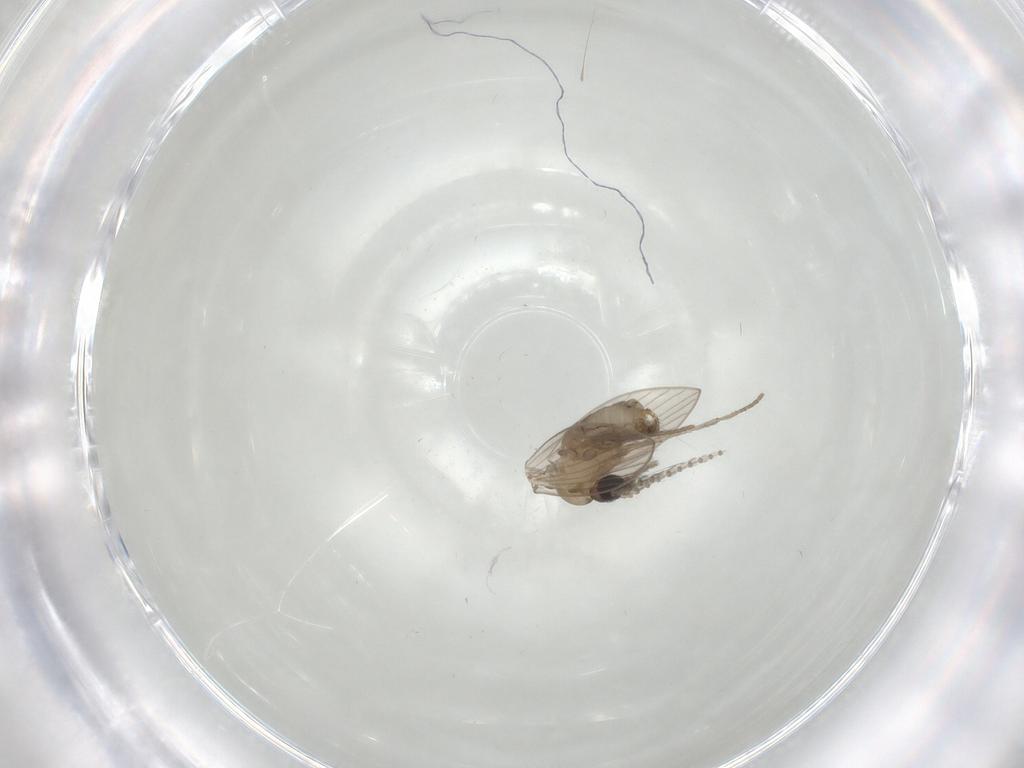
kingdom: Animalia
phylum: Arthropoda
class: Insecta
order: Diptera
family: Psychodidae
